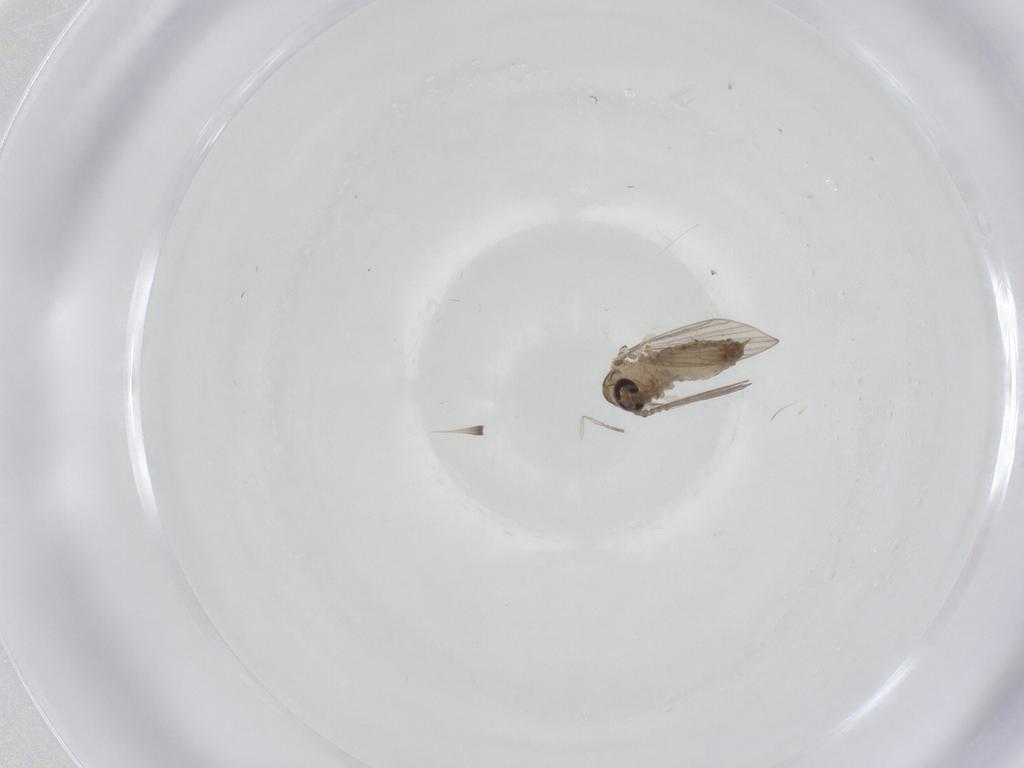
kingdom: Animalia
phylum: Arthropoda
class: Insecta
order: Diptera
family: Psychodidae
